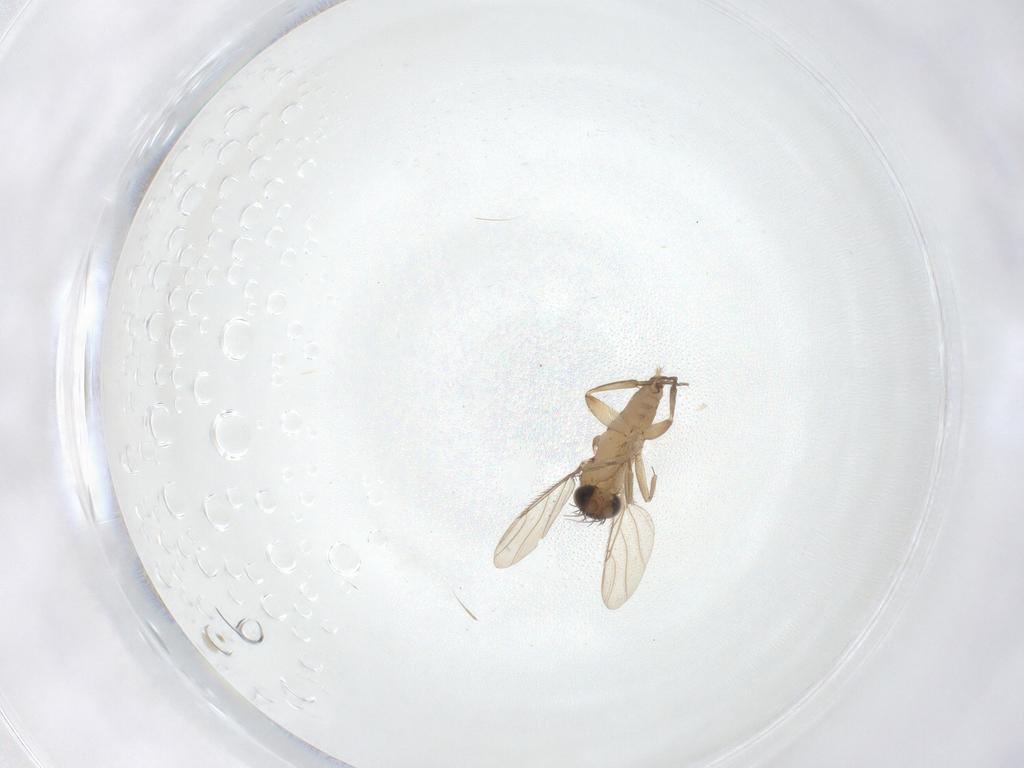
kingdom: Animalia
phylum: Arthropoda
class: Insecta
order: Diptera
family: Phoridae
